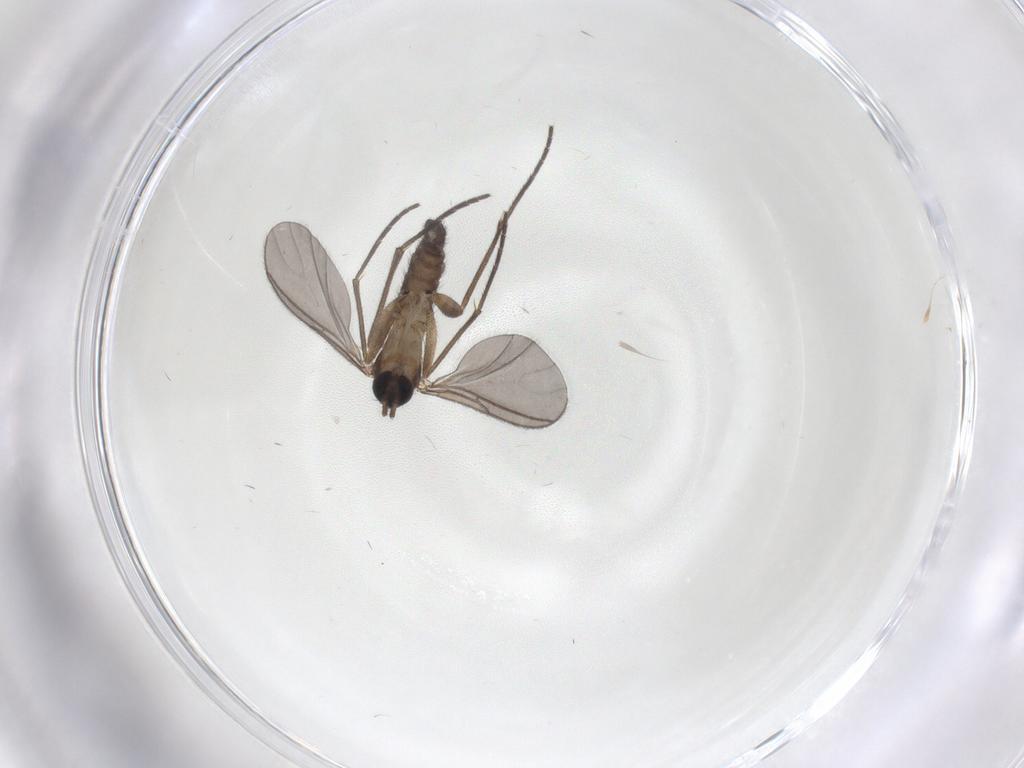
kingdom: Animalia
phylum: Arthropoda
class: Insecta
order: Diptera
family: Sciaridae
